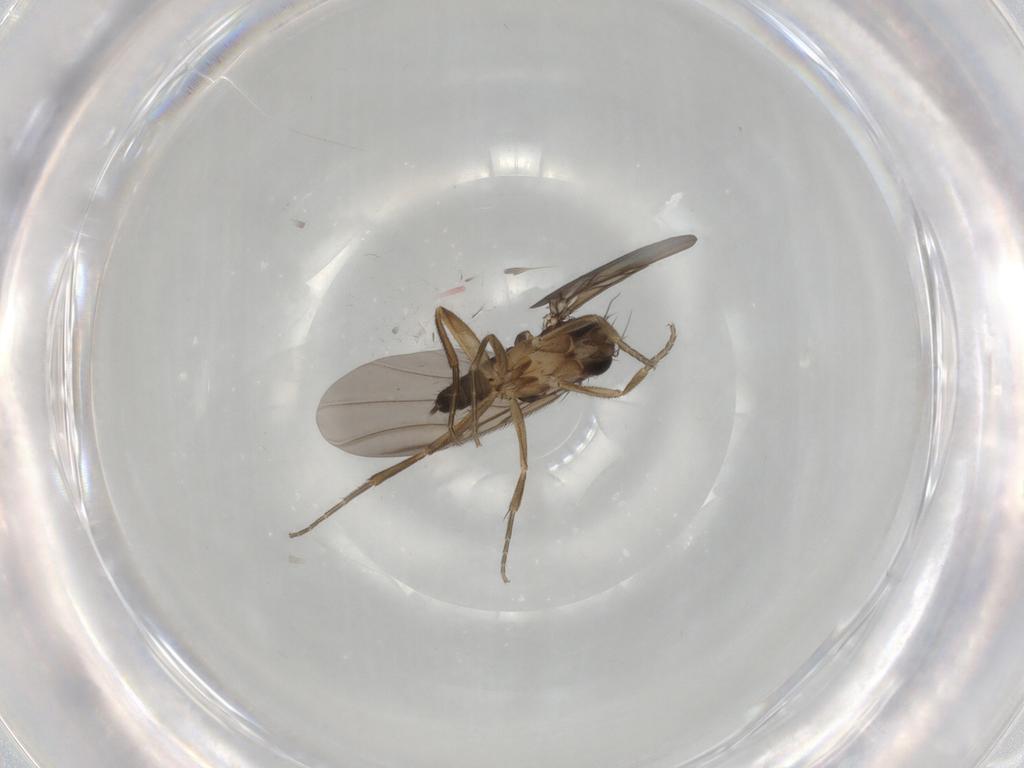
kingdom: Animalia
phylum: Arthropoda
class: Insecta
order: Diptera
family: Phoridae
